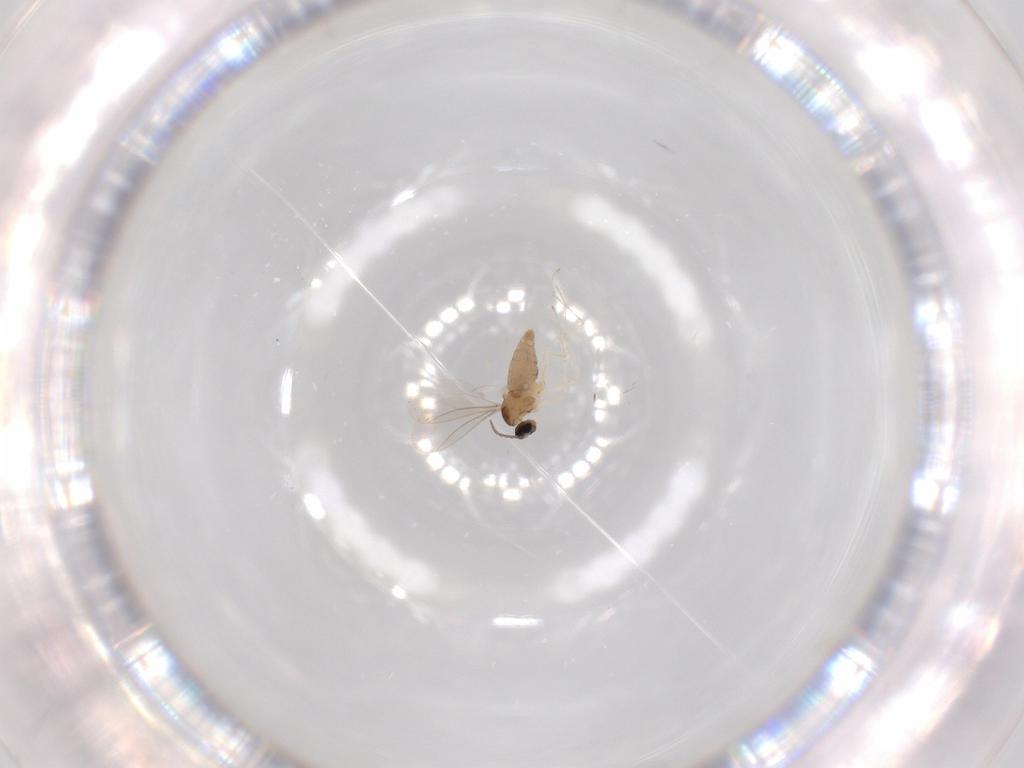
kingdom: Animalia
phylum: Arthropoda
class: Insecta
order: Diptera
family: Cecidomyiidae
